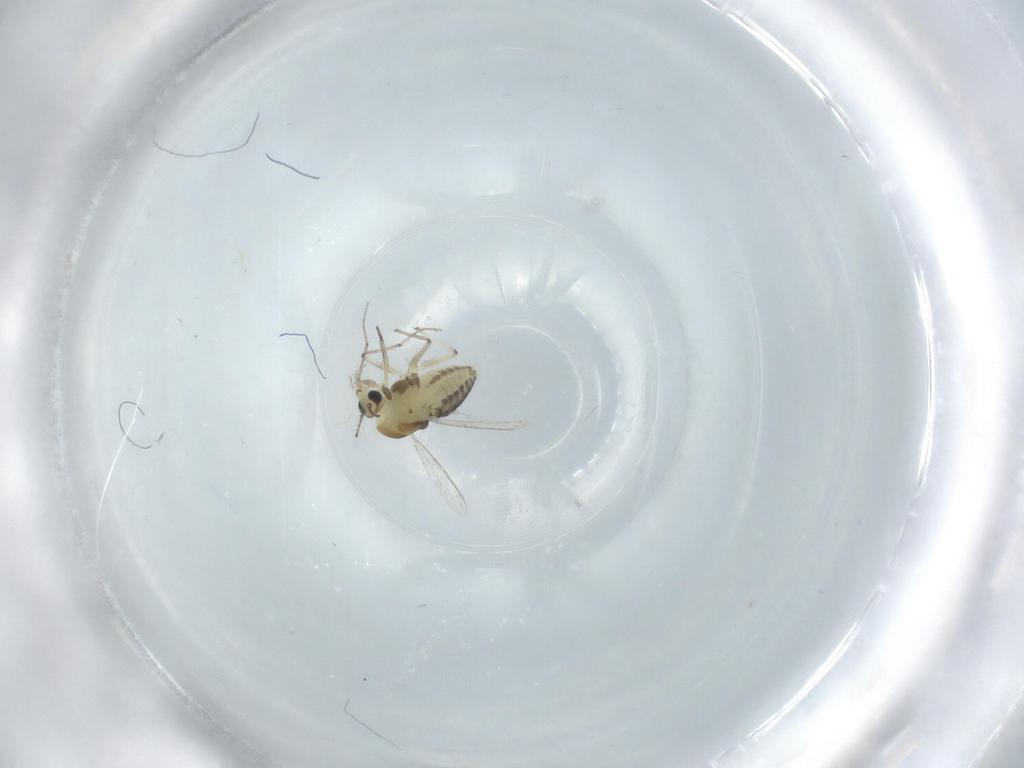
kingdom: Animalia
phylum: Arthropoda
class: Insecta
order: Diptera
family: Chironomidae
